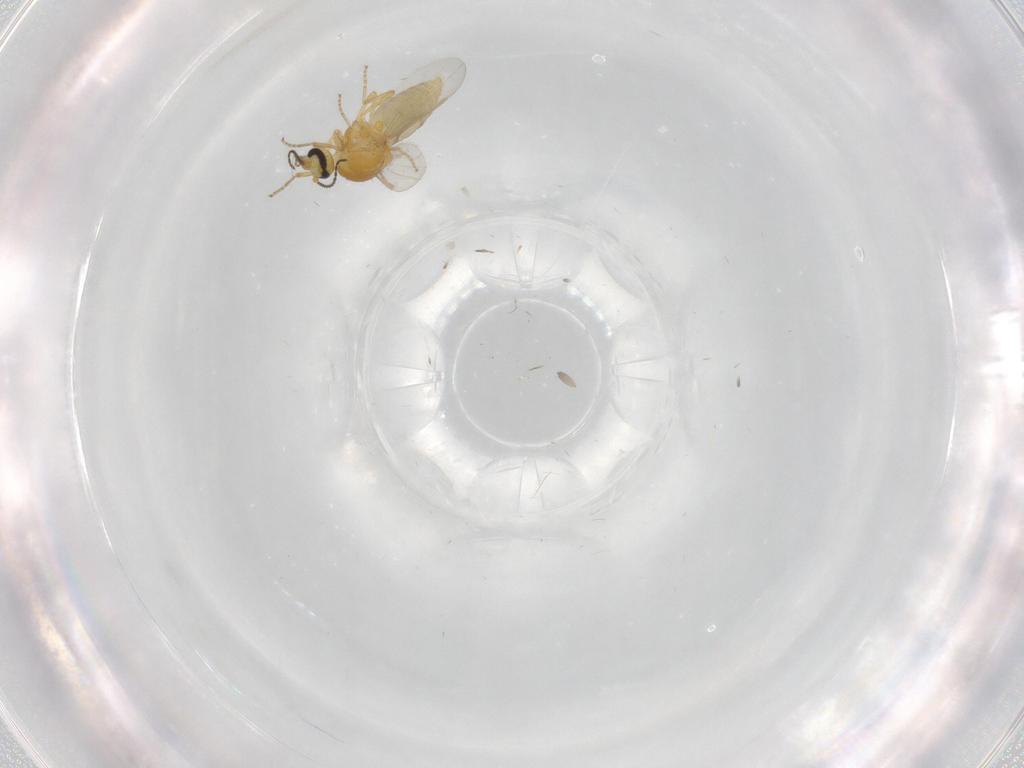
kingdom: Animalia
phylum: Arthropoda
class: Insecta
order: Diptera
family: Ceratopogonidae
